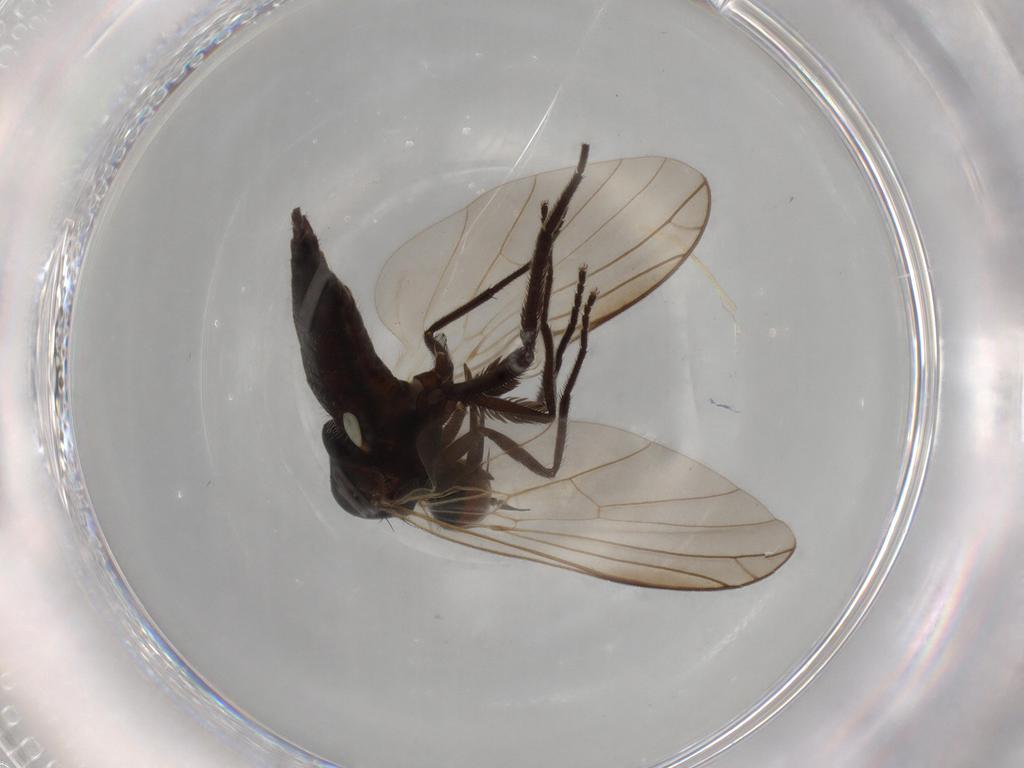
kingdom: Animalia
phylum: Arthropoda
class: Insecta
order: Diptera
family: Empididae
